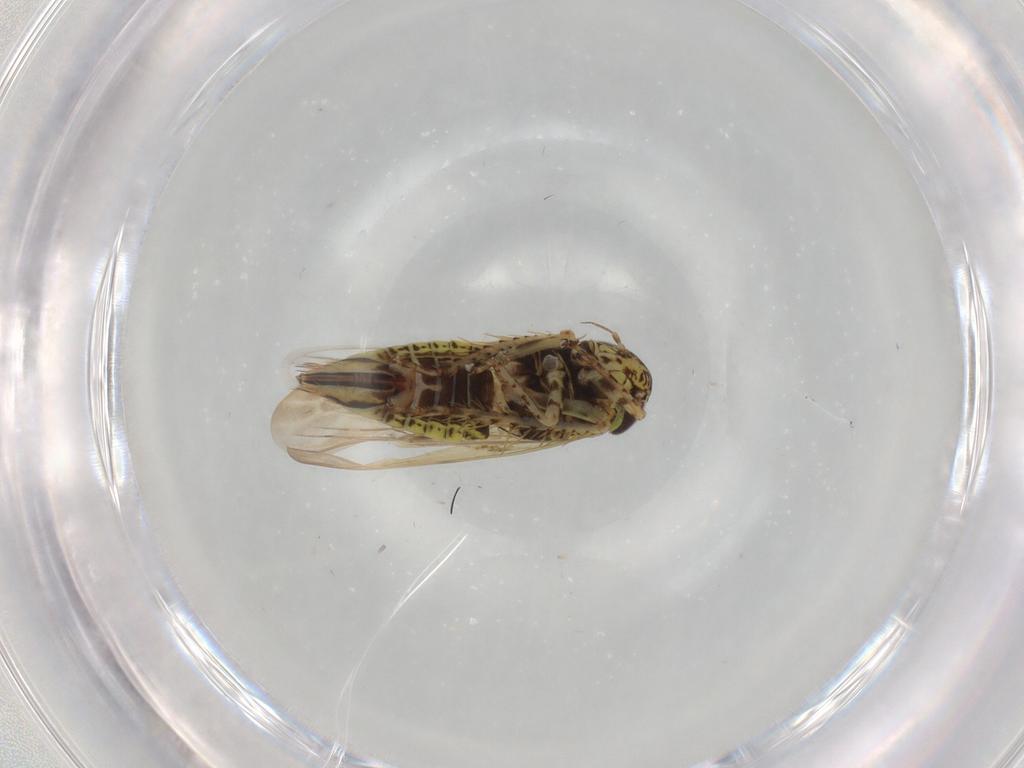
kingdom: Animalia
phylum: Arthropoda
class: Insecta
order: Hemiptera
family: Cicadellidae
